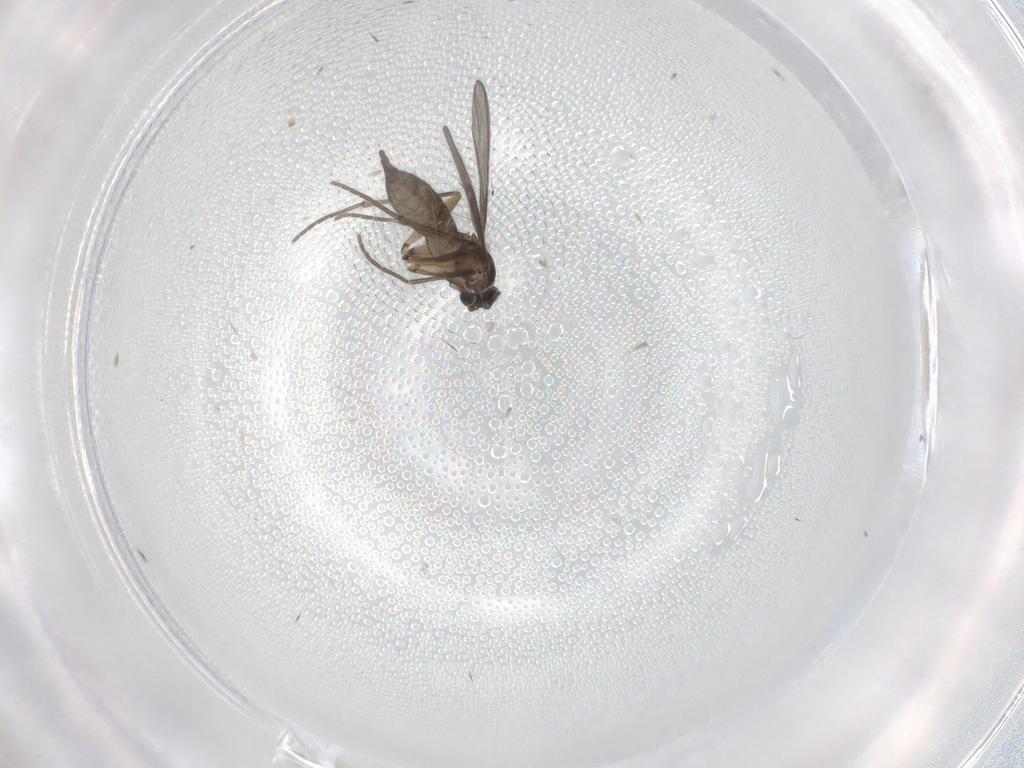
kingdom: Animalia
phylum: Arthropoda
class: Insecta
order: Diptera
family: Sciaridae
